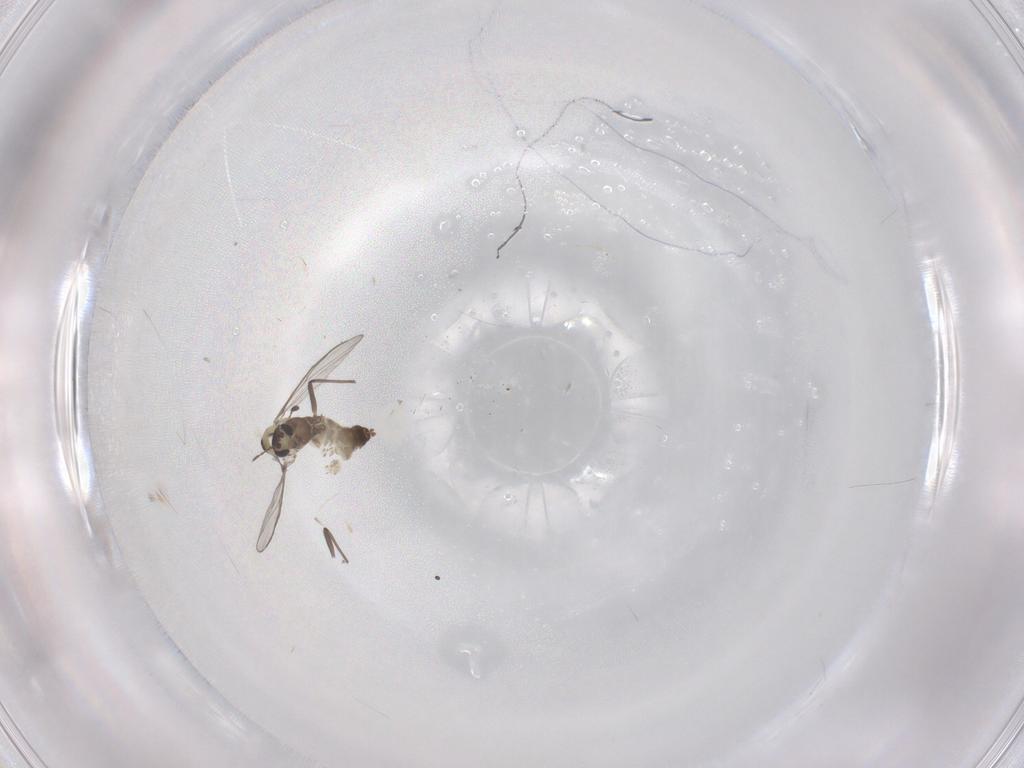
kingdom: Animalia
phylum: Arthropoda
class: Insecta
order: Diptera
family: Chironomidae
